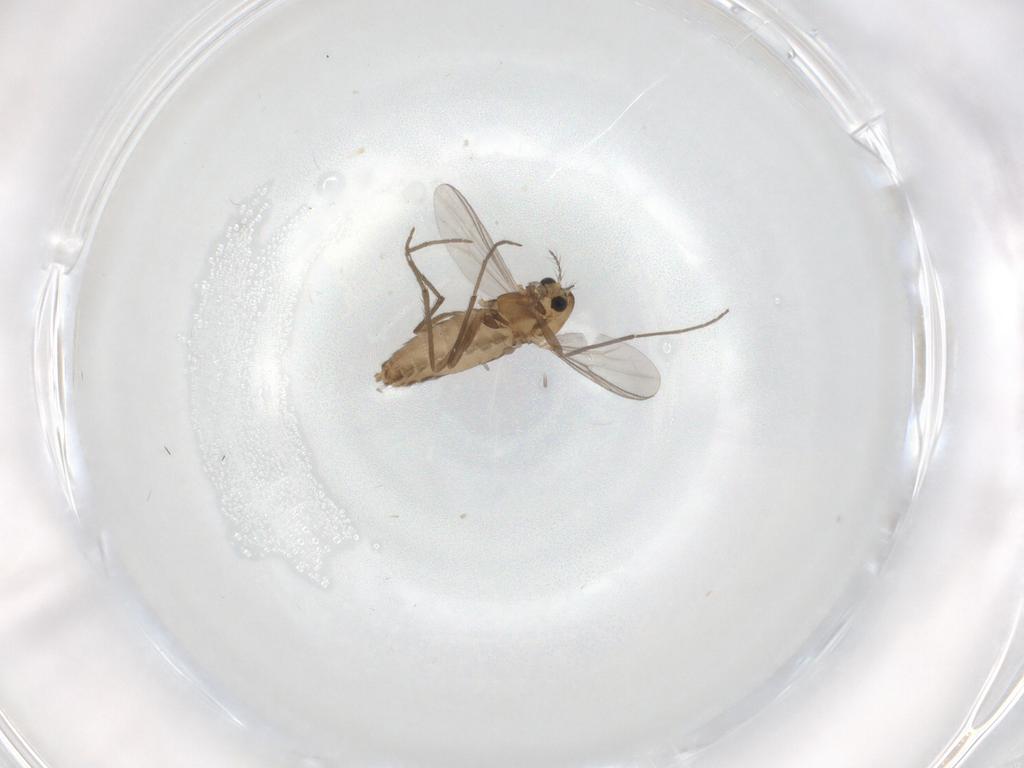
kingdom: Animalia
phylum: Arthropoda
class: Insecta
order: Diptera
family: Chironomidae
